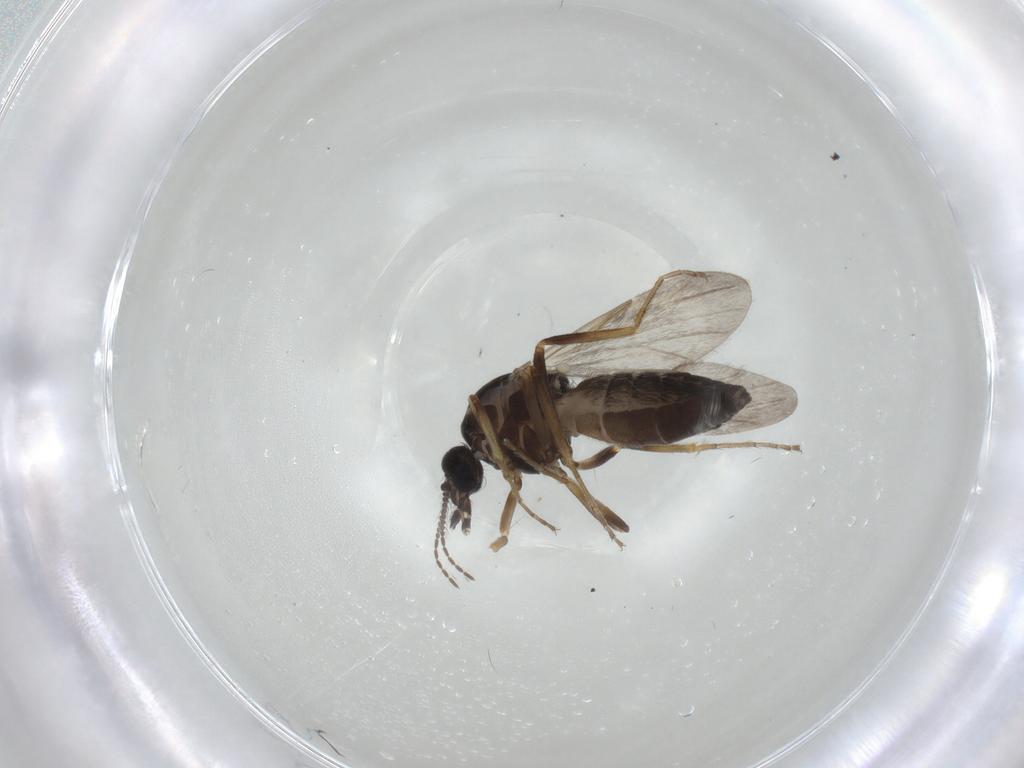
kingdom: Animalia
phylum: Arthropoda
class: Insecta
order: Diptera
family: Ceratopogonidae
